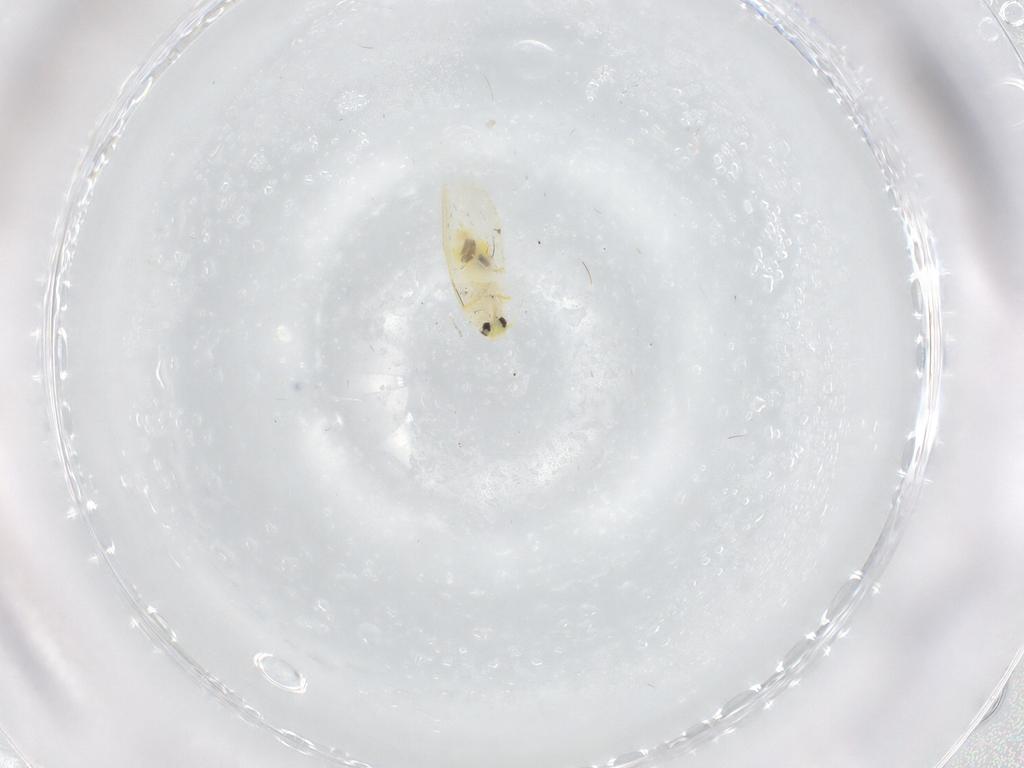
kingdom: Animalia
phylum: Arthropoda
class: Insecta
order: Hemiptera
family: Aleyrodidae
